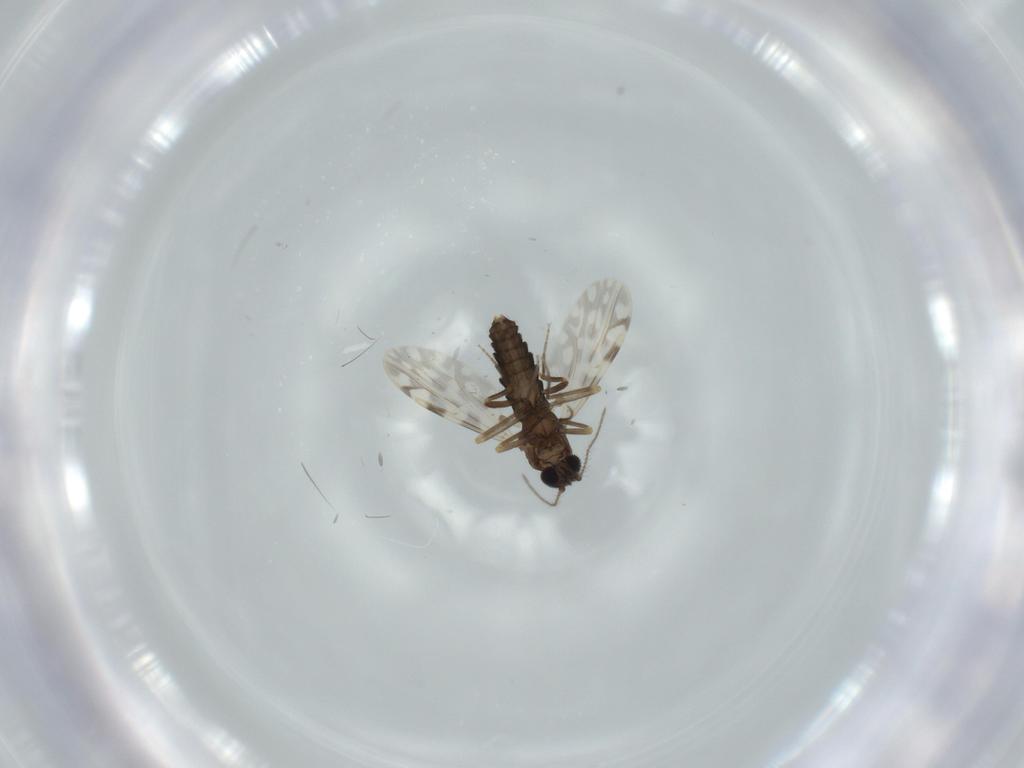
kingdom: Animalia
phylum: Arthropoda
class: Insecta
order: Diptera
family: Ceratopogonidae
